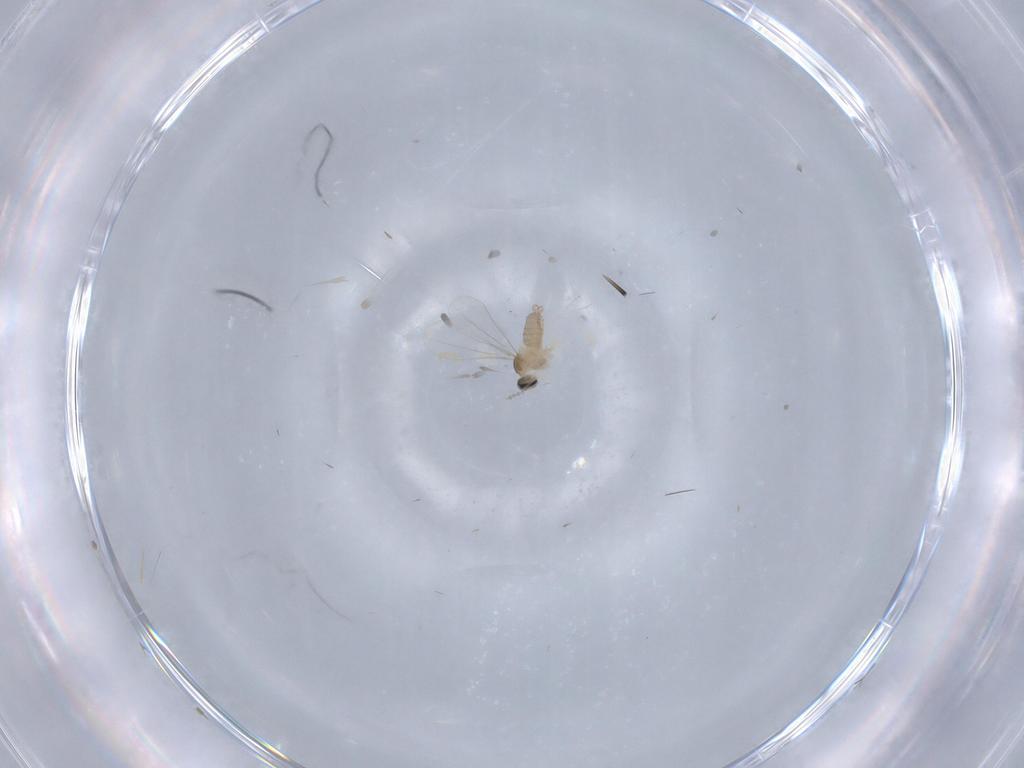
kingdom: Animalia
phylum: Arthropoda
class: Insecta
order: Diptera
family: Cecidomyiidae
